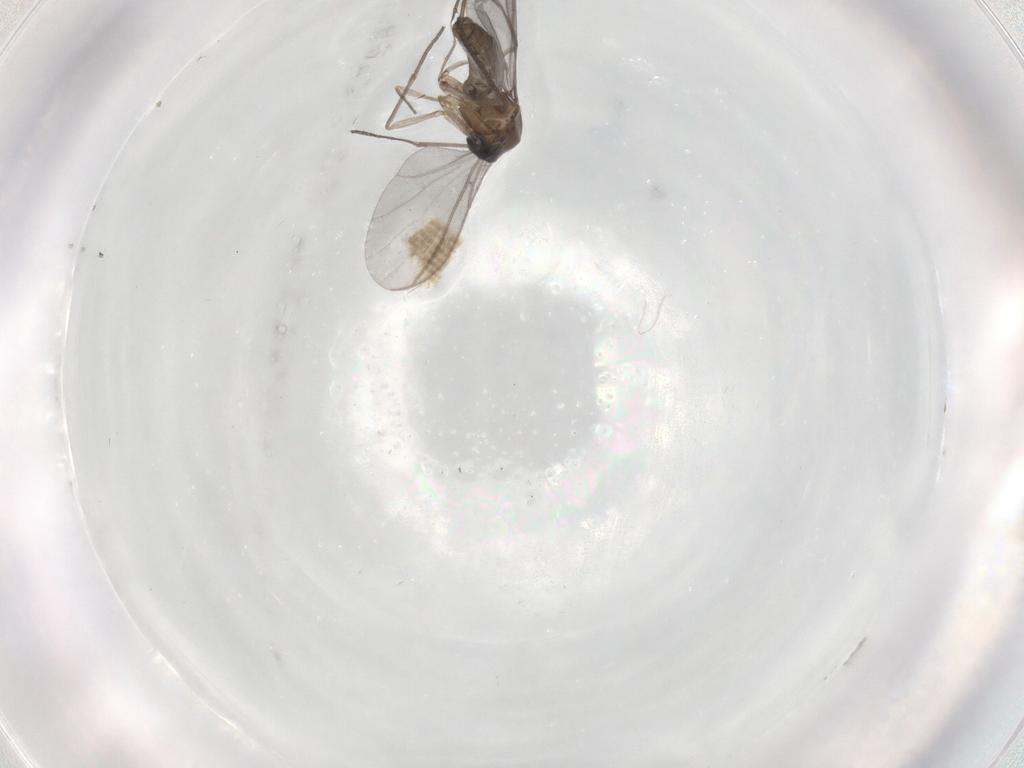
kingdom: Animalia
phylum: Arthropoda
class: Insecta
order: Diptera
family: Sciaridae
